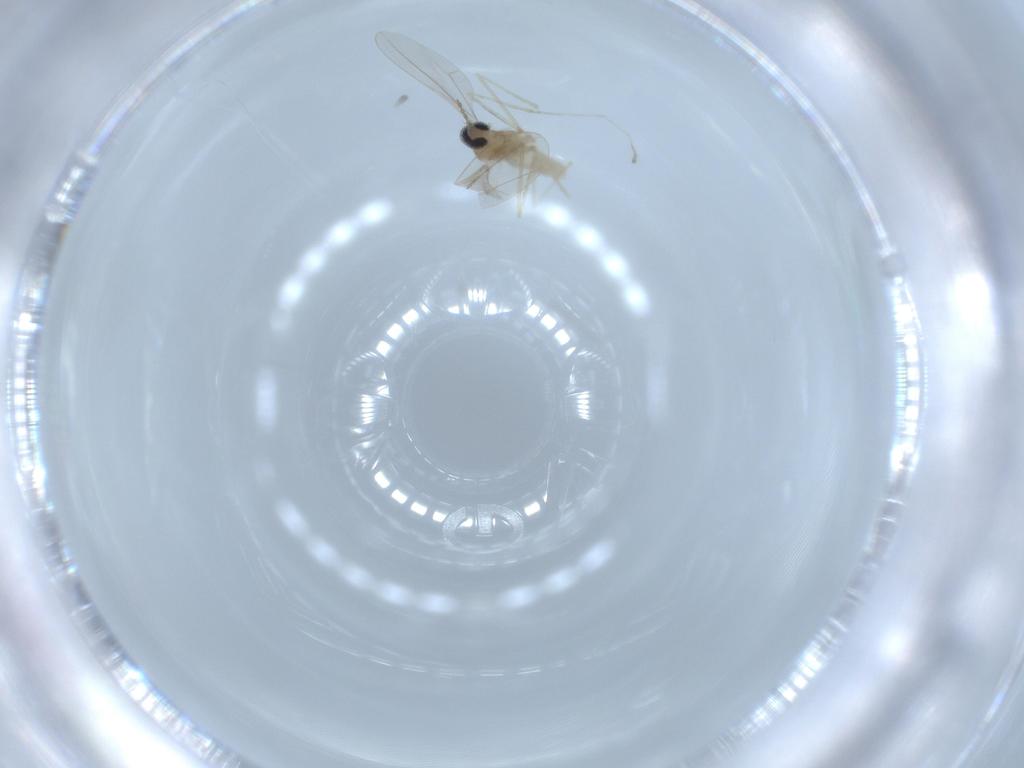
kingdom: Animalia
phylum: Arthropoda
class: Insecta
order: Diptera
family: Cecidomyiidae
